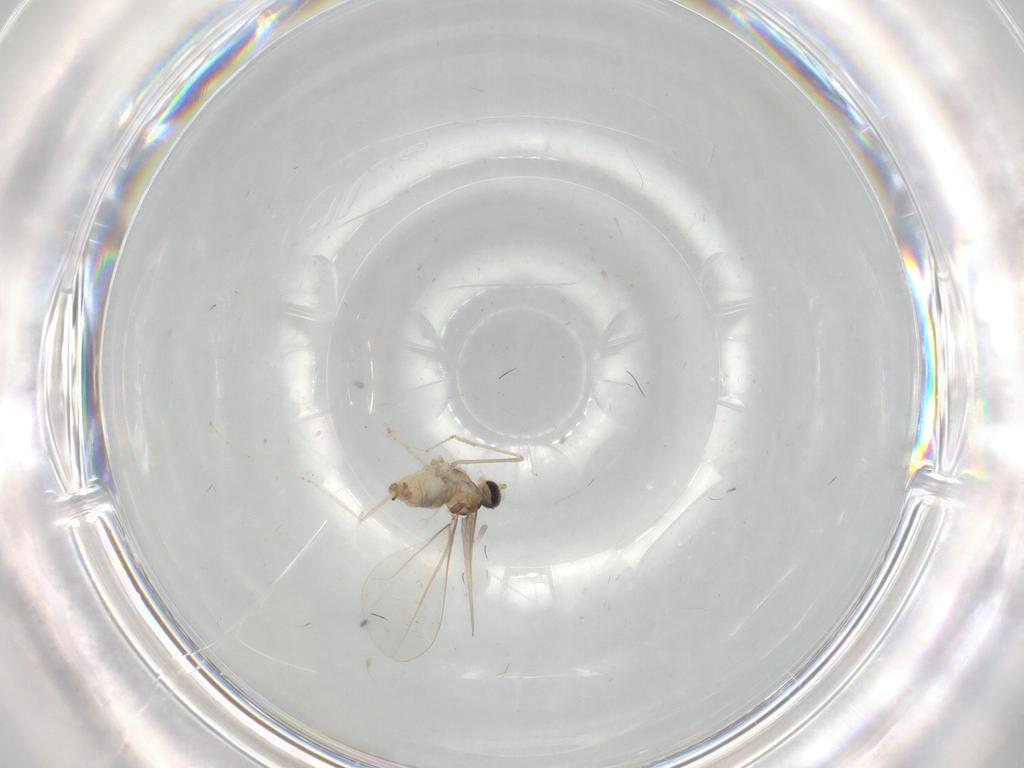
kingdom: Animalia
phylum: Arthropoda
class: Insecta
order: Diptera
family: Cecidomyiidae
